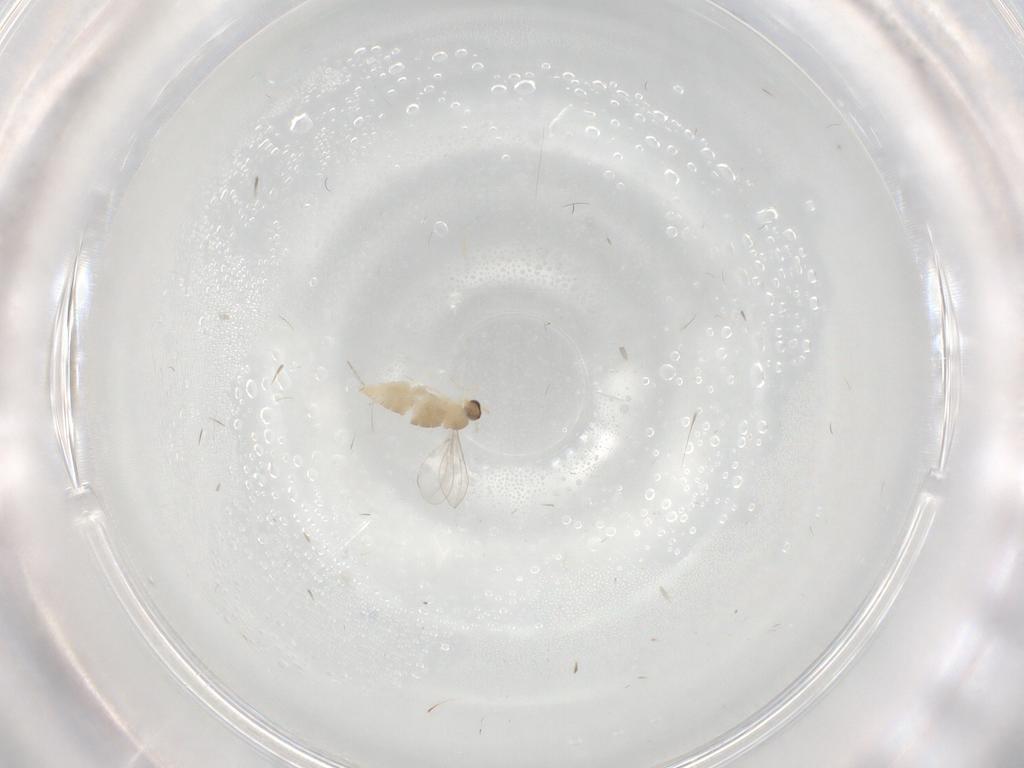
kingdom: Animalia
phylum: Arthropoda
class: Insecta
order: Diptera
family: Cecidomyiidae
